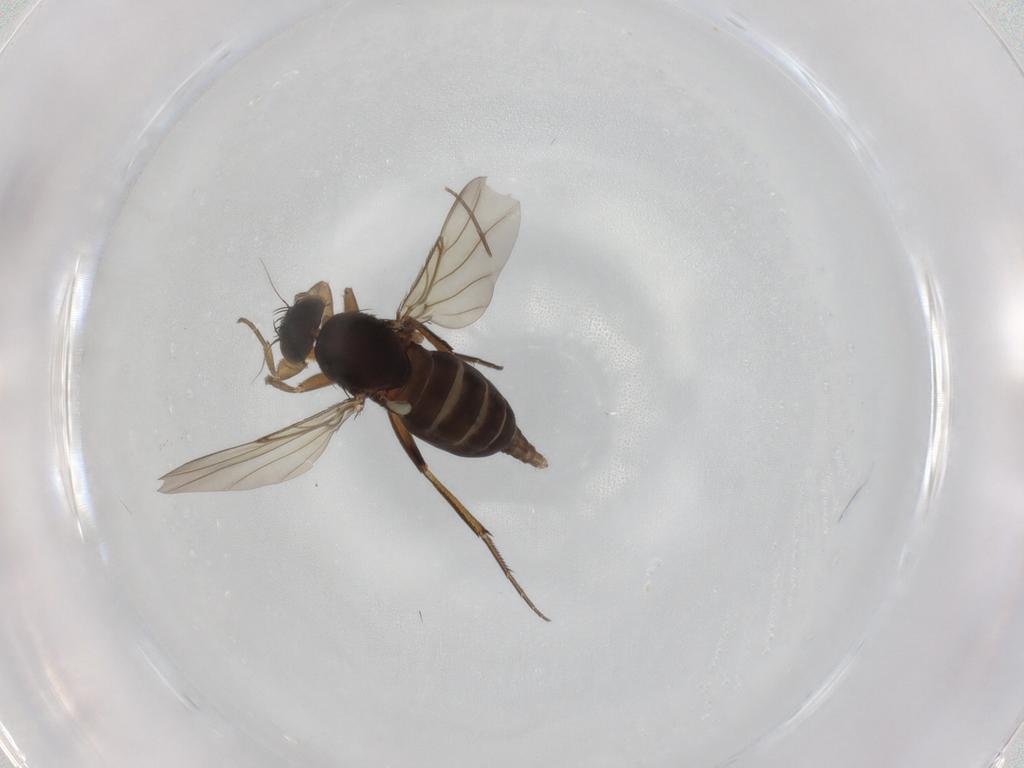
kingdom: Animalia
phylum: Arthropoda
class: Insecta
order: Diptera
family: Phoridae
